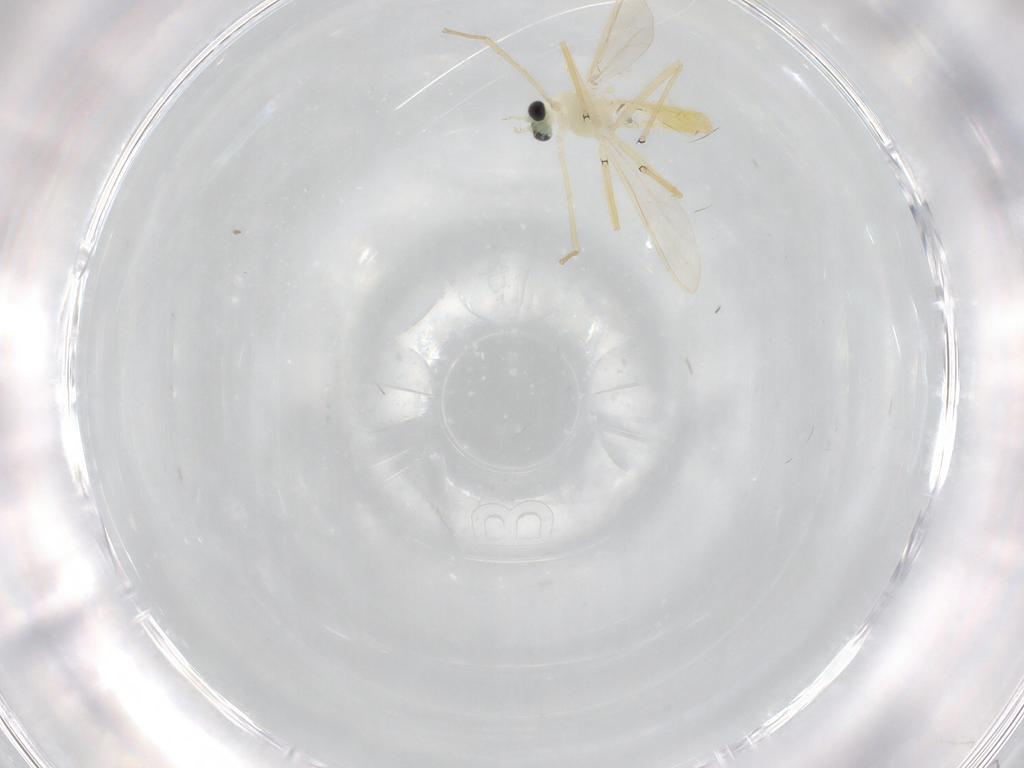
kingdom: Animalia
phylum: Arthropoda
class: Insecta
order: Diptera
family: Chironomidae
